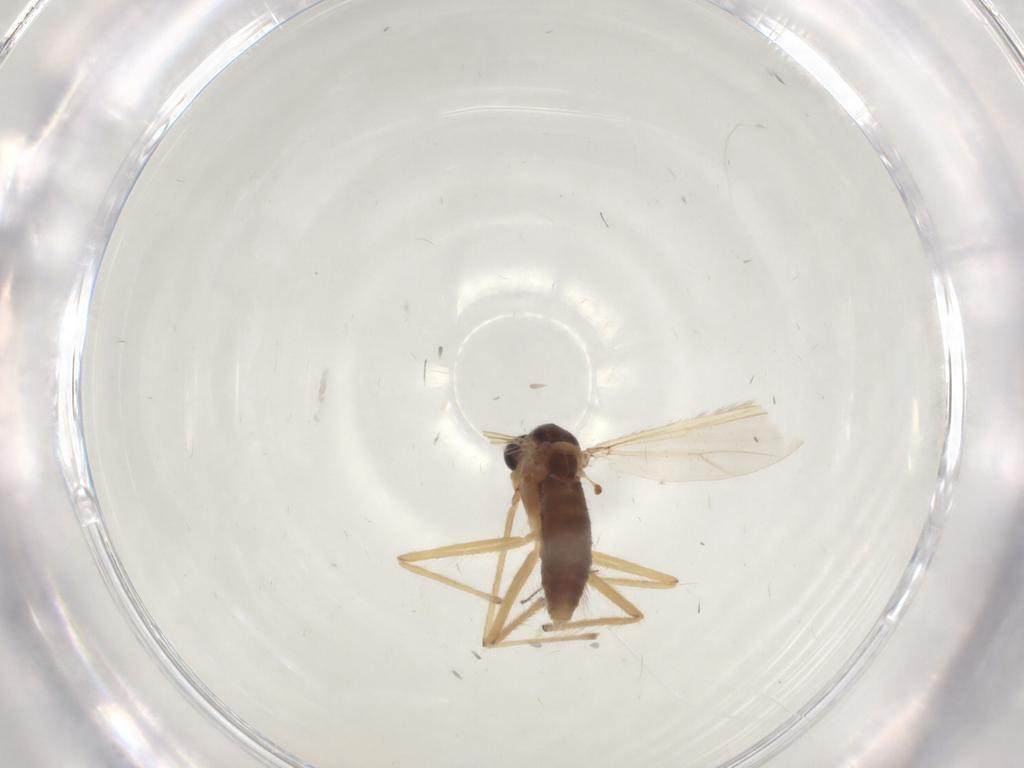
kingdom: Animalia
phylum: Arthropoda
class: Insecta
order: Diptera
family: Chironomidae
